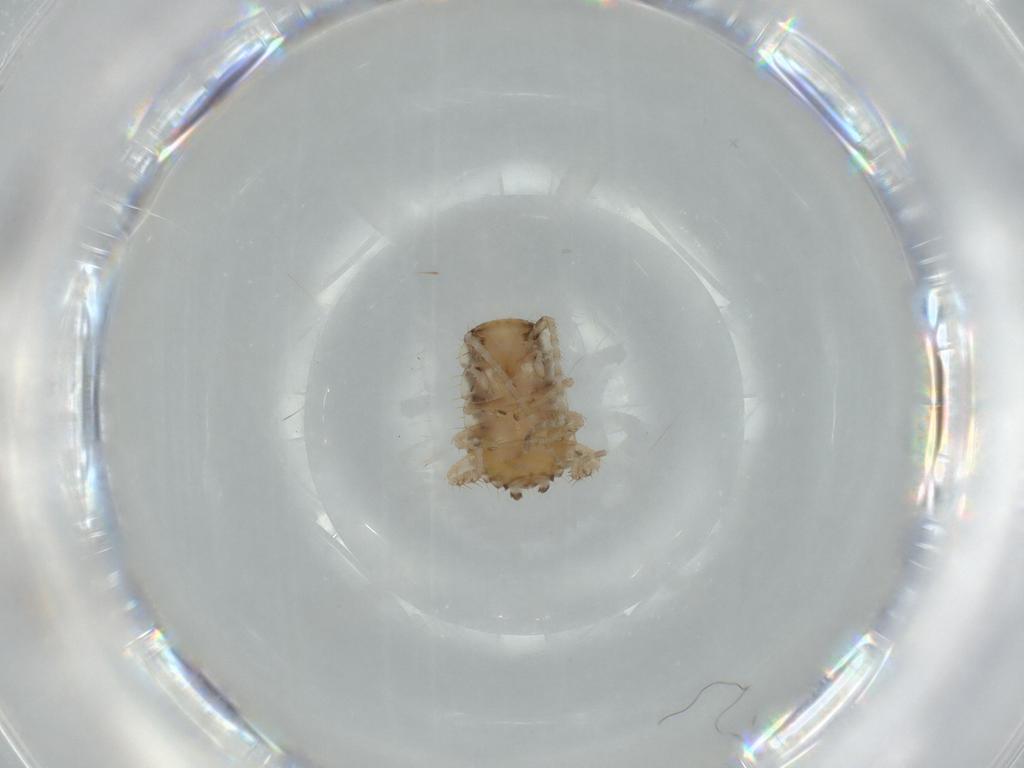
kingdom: Animalia
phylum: Arthropoda
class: Insecta
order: Blattodea
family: Ectobiidae
